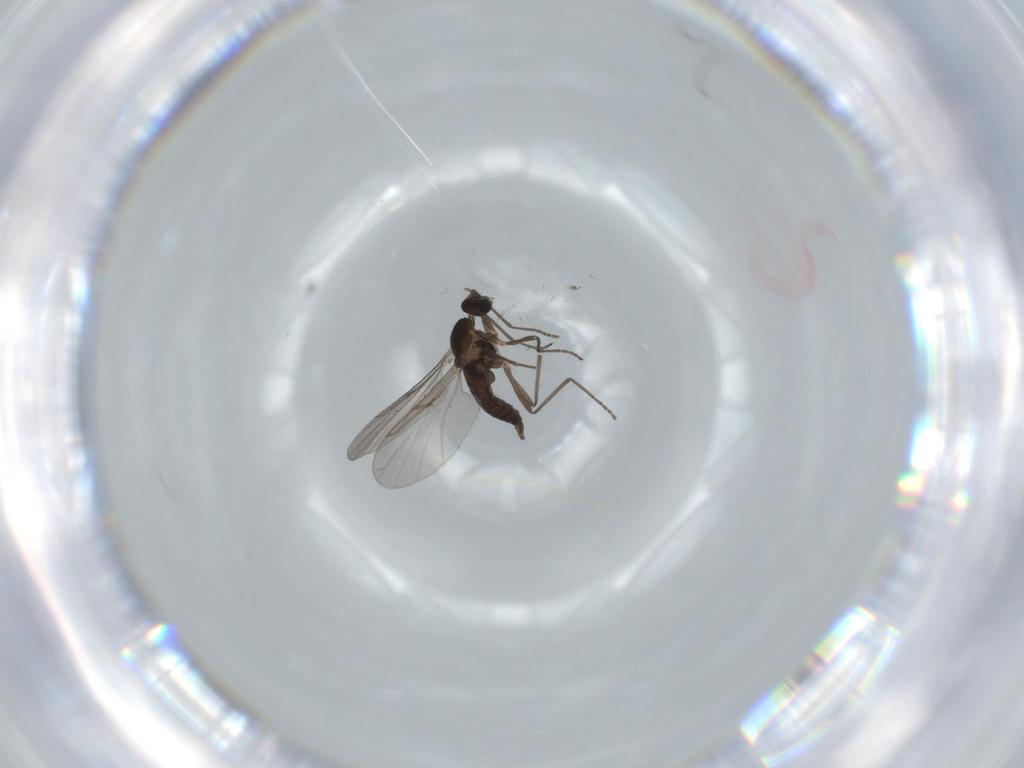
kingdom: Animalia
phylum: Arthropoda
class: Insecta
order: Diptera
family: Cecidomyiidae
